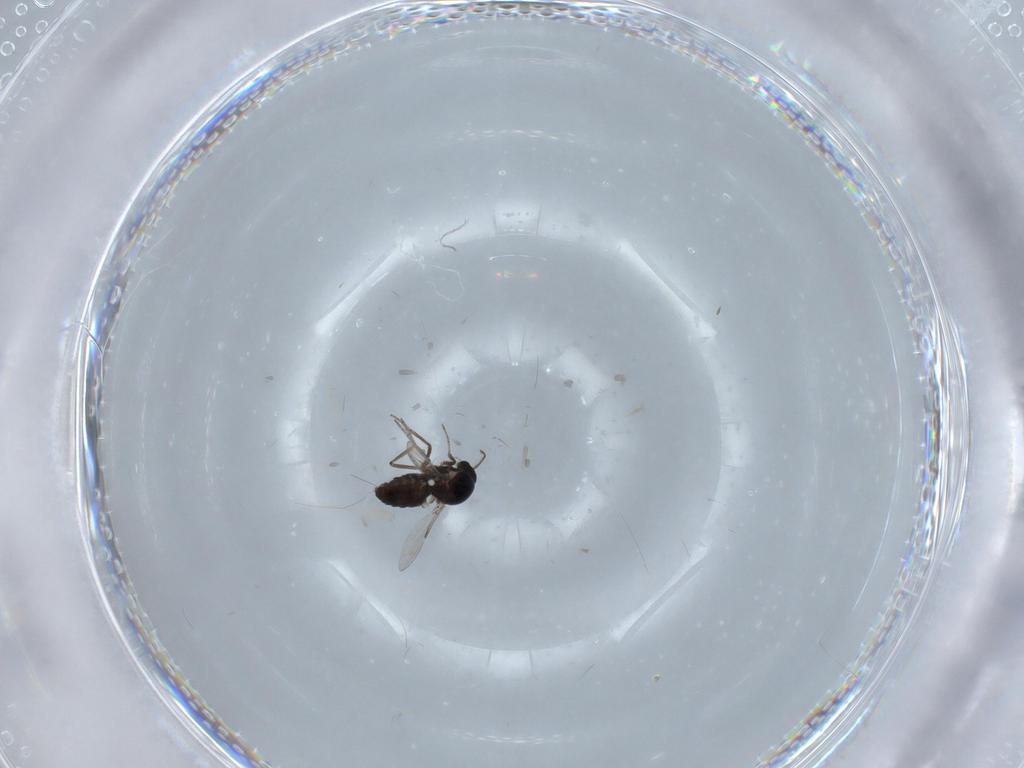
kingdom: Animalia
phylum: Arthropoda
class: Insecta
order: Diptera
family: Ceratopogonidae
